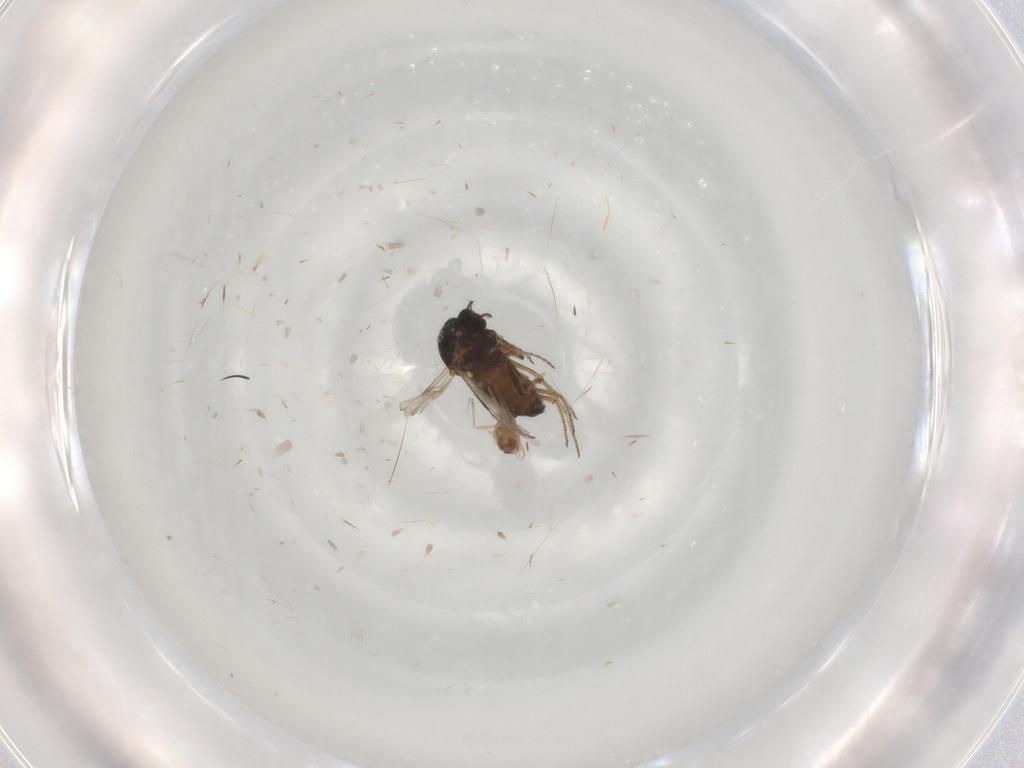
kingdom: Animalia
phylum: Arthropoda
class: Insecta
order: Diptera
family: Cecidomyiidae
